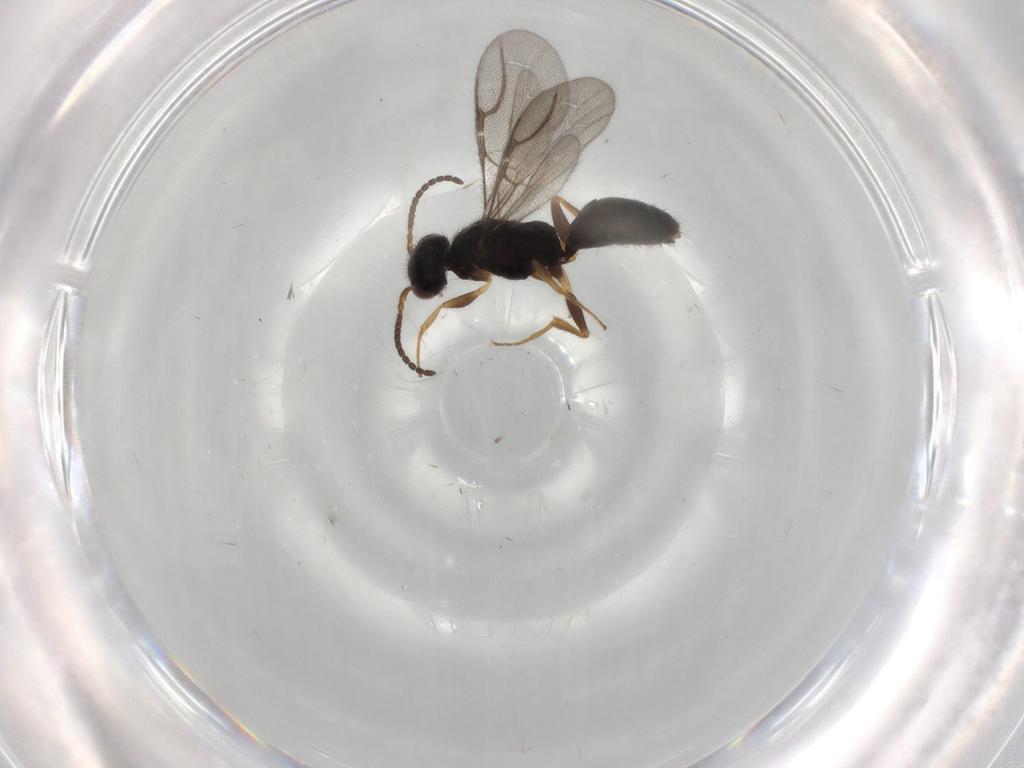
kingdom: Animalia
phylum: Arthropoda
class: Insecta
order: Hymenoptera
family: Bethylidae
